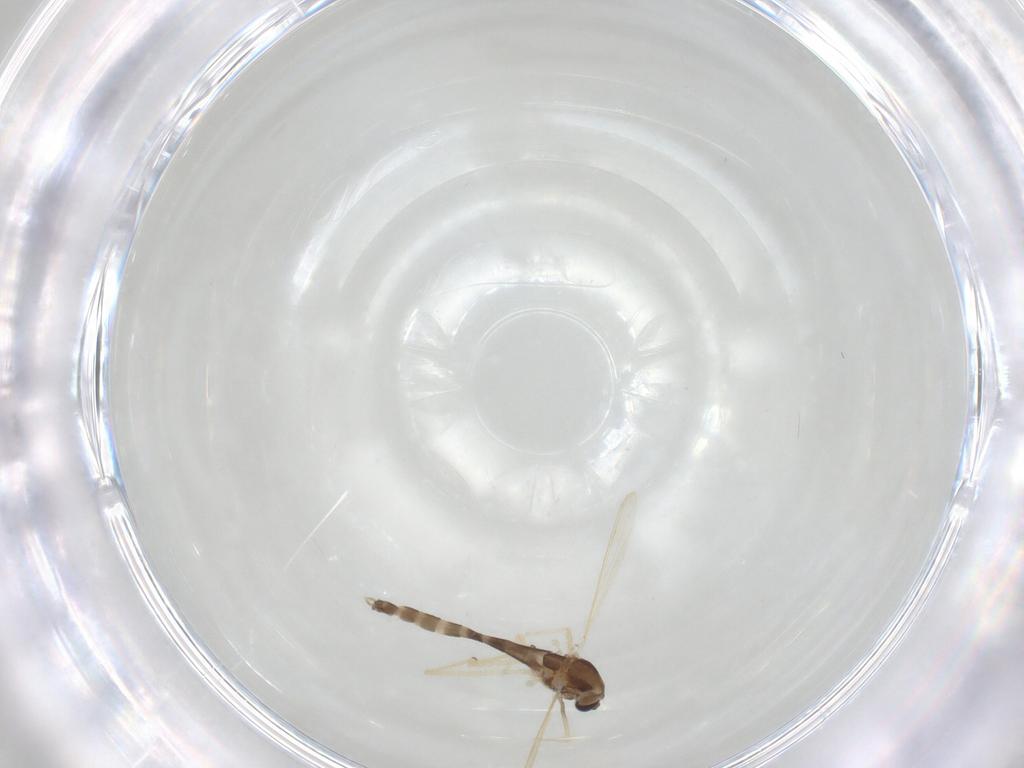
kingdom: Animalia
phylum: Arthropoda
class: Insecta
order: Diptera
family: Chironomidae
